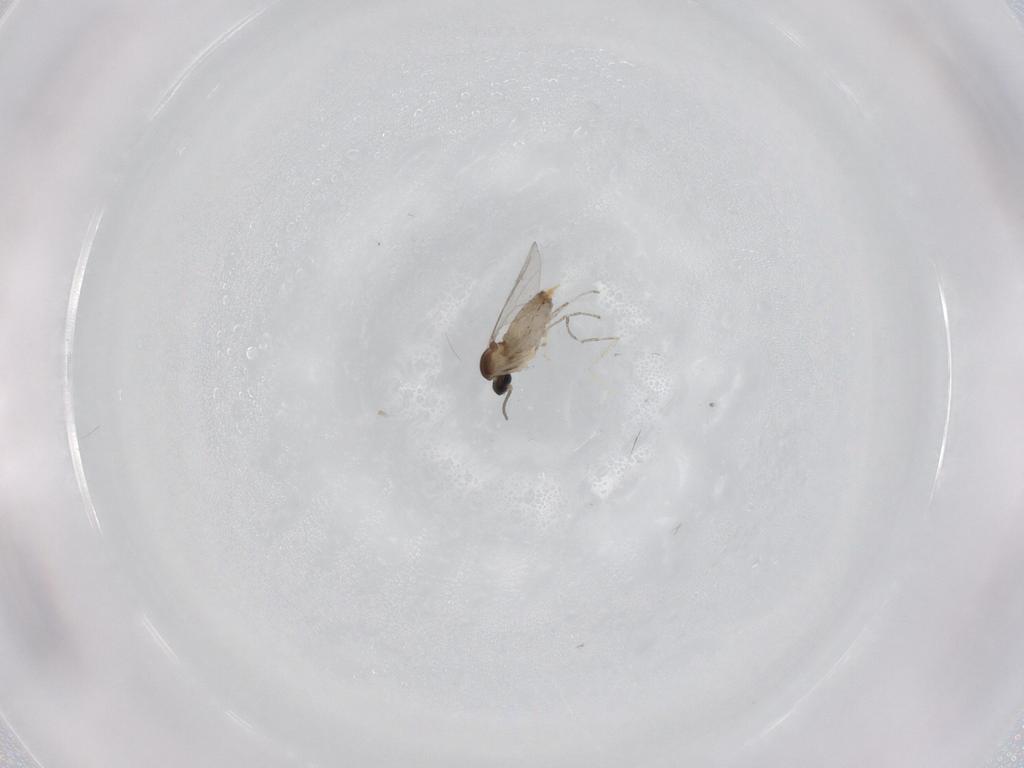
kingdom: Animalia
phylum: Arthropoda
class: Insecta
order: Diptera
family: Cecidomyiidae
